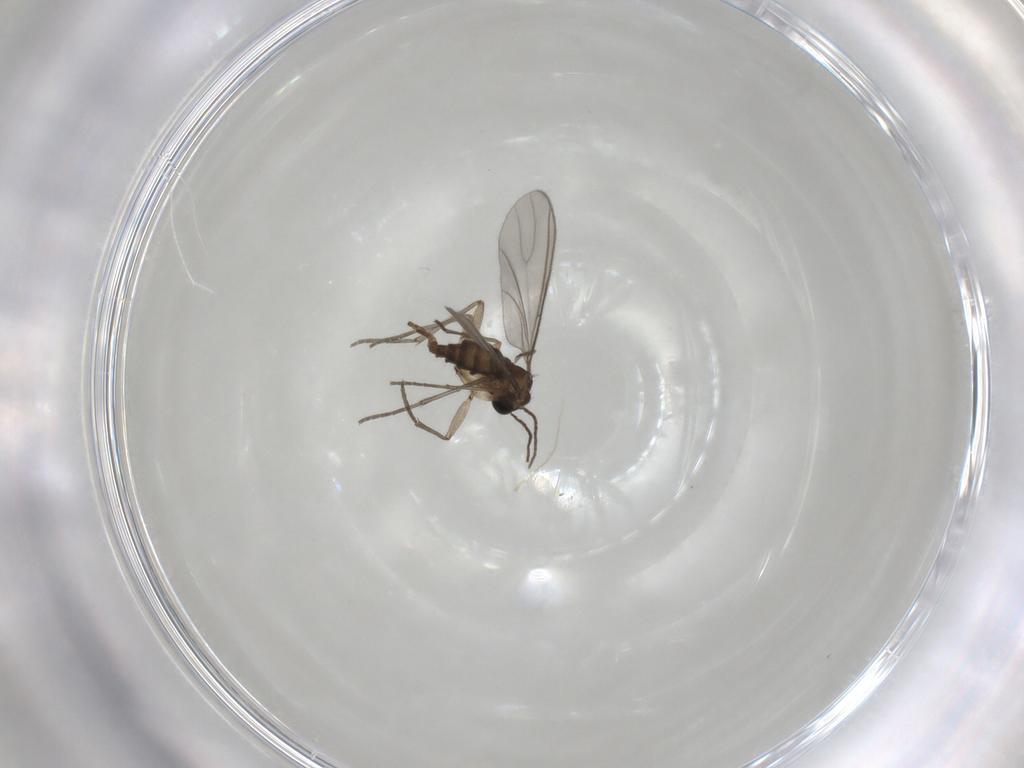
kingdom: Animalia
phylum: Arthropoda
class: Insecta
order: Diptera
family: Sciaridae
